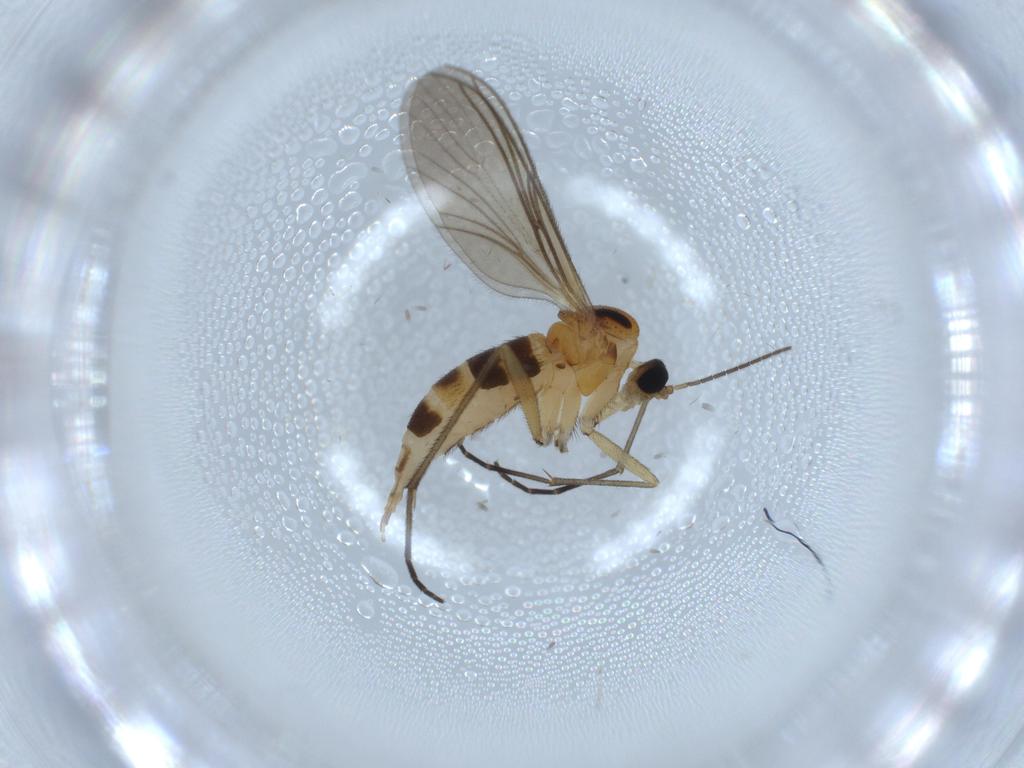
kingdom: Animalia
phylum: Arthropoda
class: Insecta
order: Diptera
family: Sciaridae
